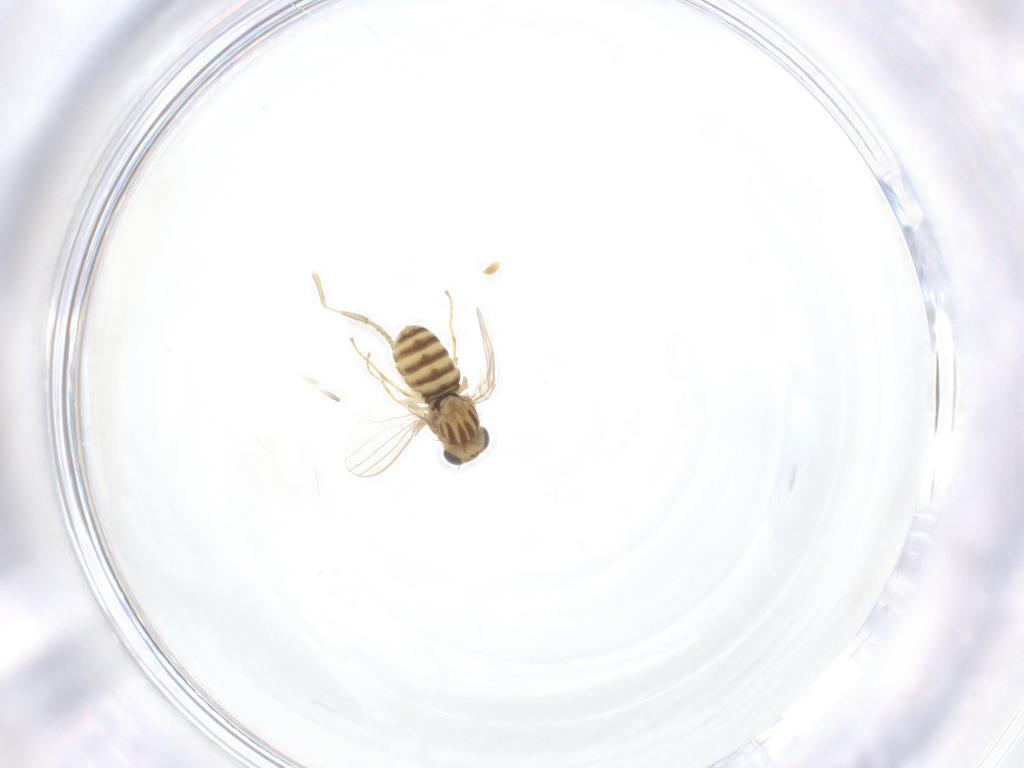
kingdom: Animalia
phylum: Arthropoda
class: Insecta
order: Diptera
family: Chyromyidae
